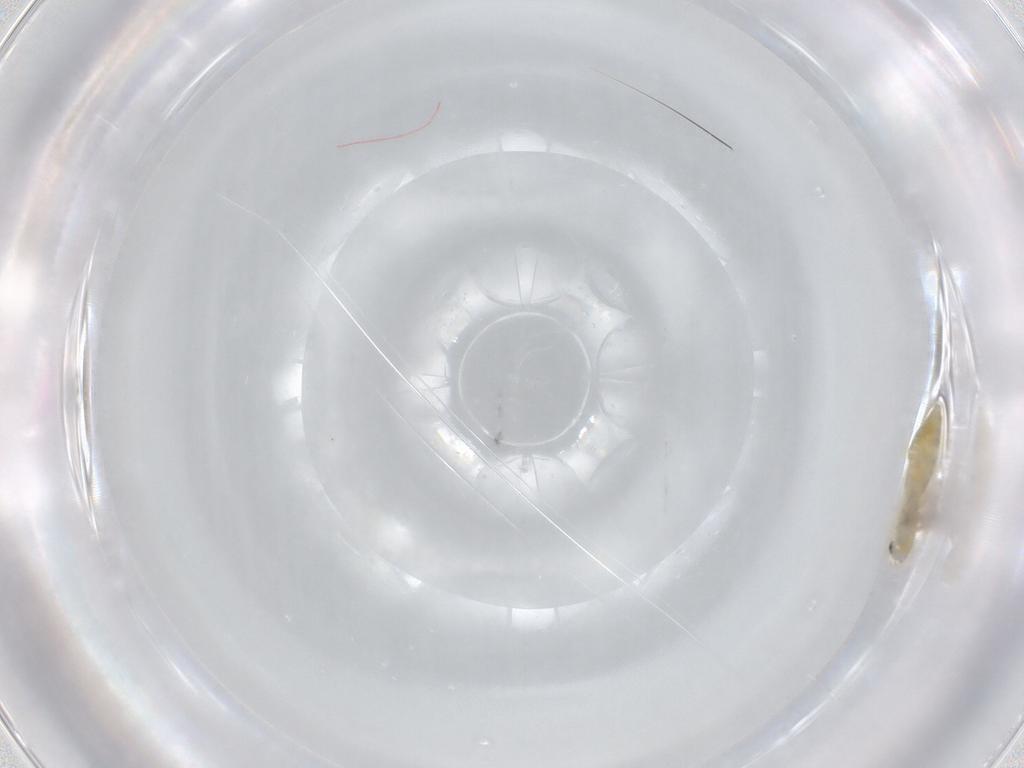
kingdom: Animalia
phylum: Arthropoda
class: Insecta
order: Diptera
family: Chironomidae
